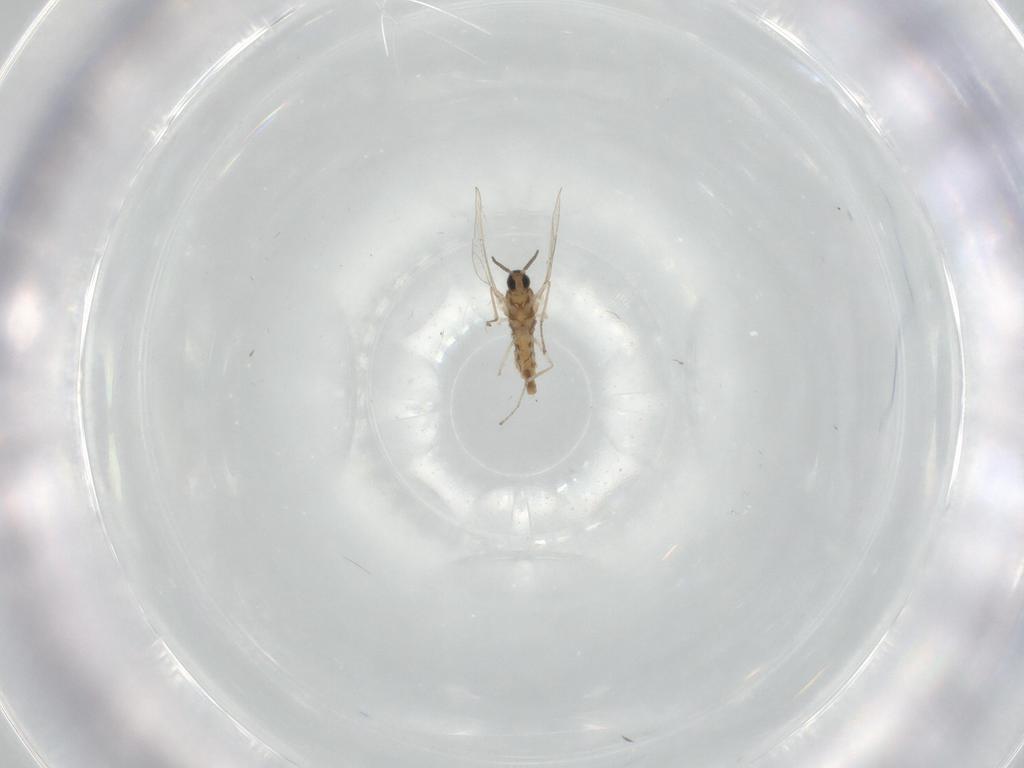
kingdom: Animalia
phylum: Arthropoda
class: Insecta
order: Diptera
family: Cecidomyiidae
